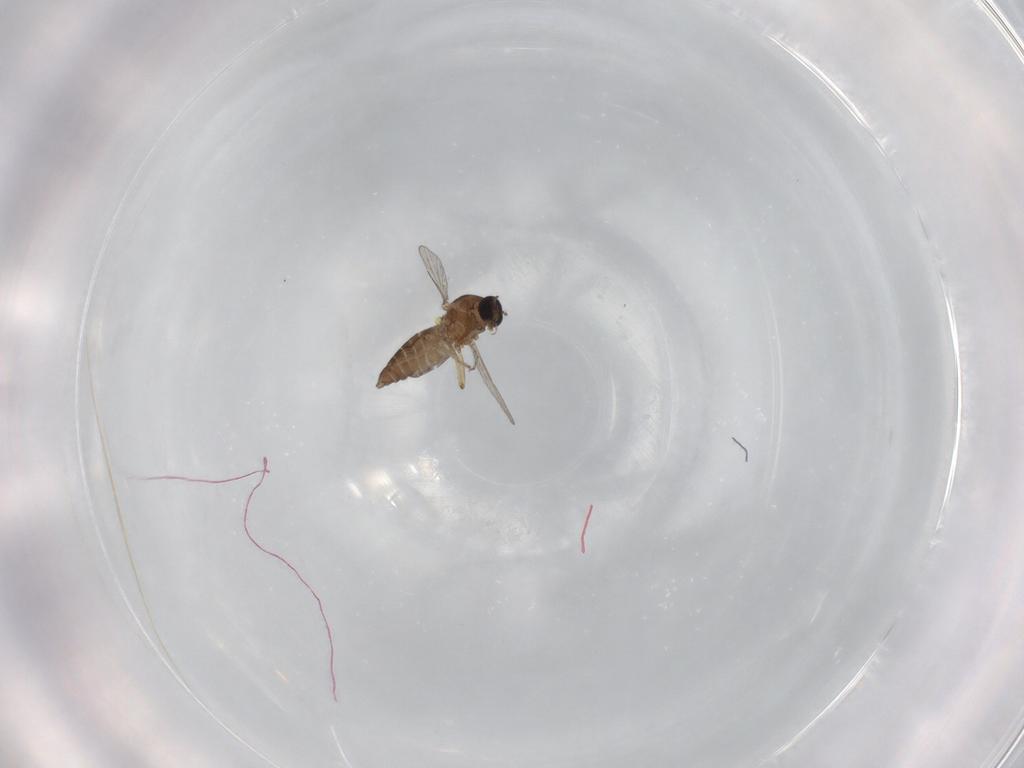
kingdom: Animalia
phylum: Arthropoda
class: Insecta
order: Diptera
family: Ceratopogonidae
